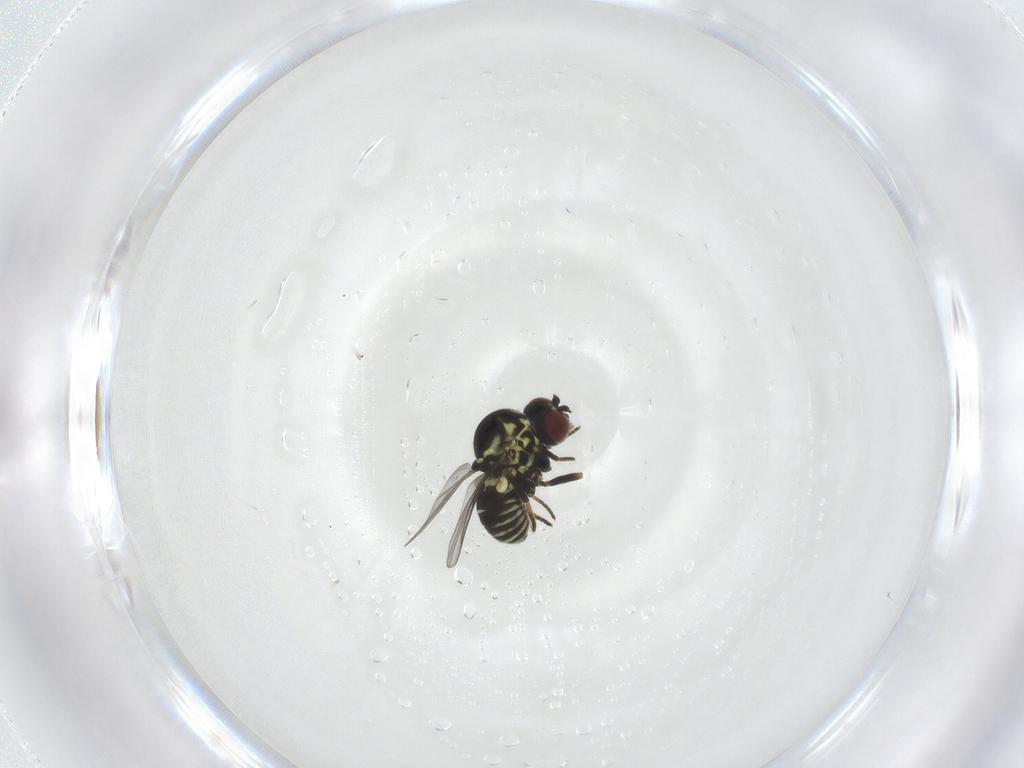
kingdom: Animalia
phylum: Arthropoda
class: Insecta
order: Diptera
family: Mythicomyiidae
